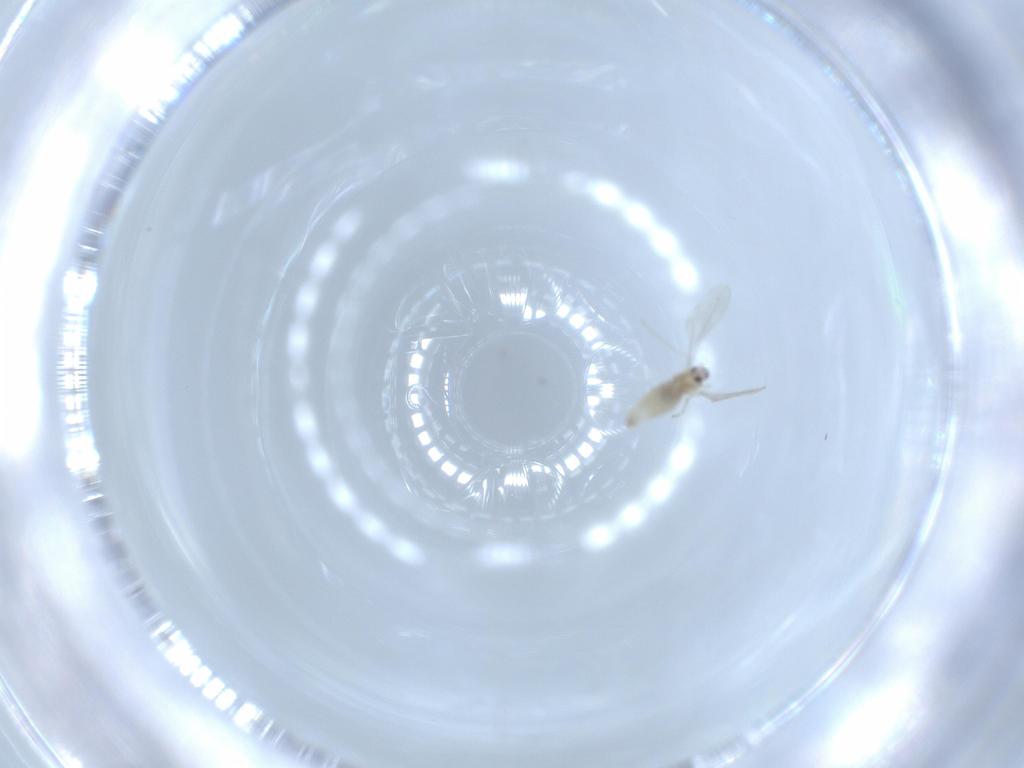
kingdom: Animalia
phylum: Arthropoda
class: Insecta
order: Diptera
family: Cecidomyiidae
